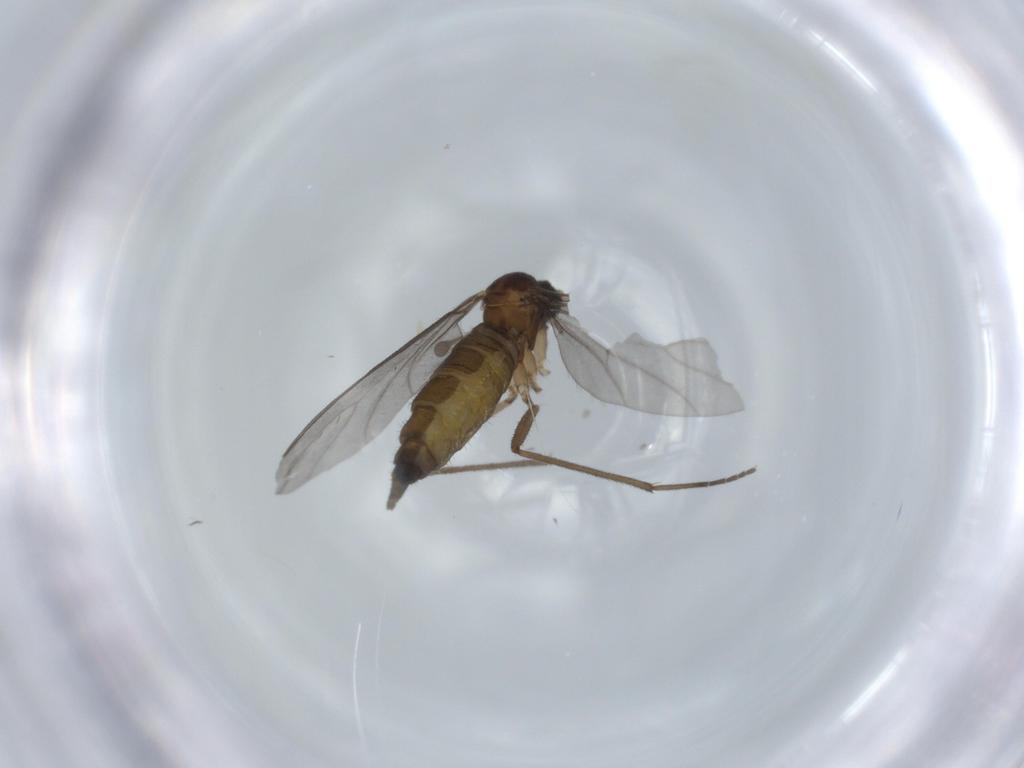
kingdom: Animalia
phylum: Arthropoda
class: Insecta
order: Diptera
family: Sciaridae
